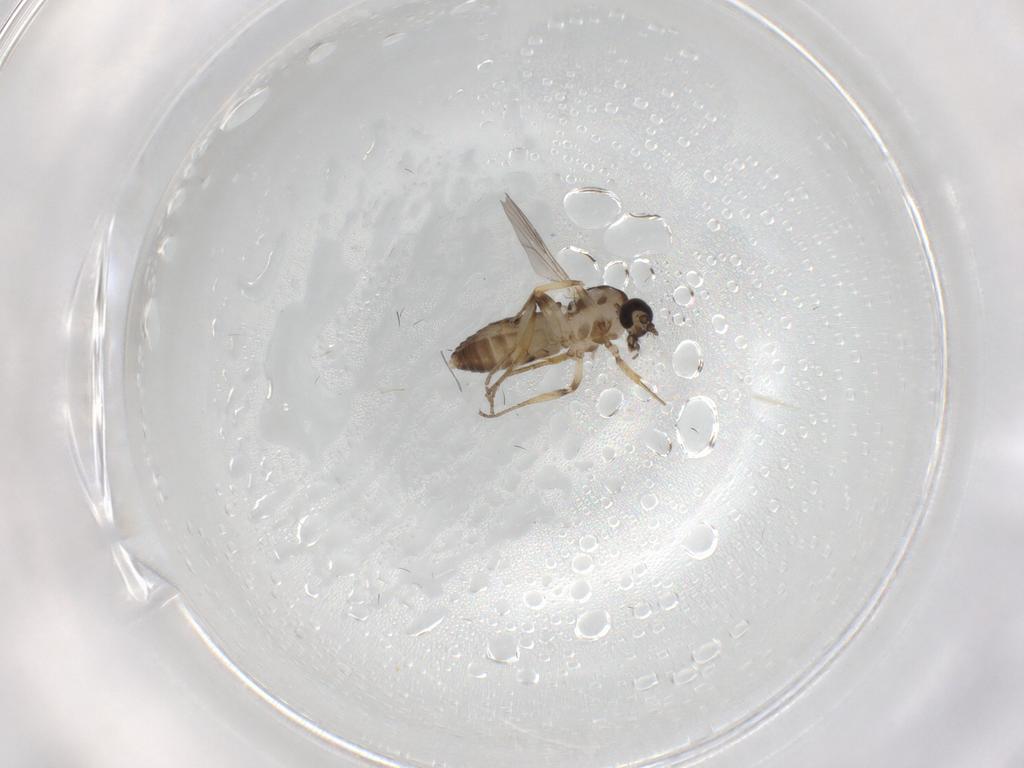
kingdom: Animalia
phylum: Arthropoda
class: Insecta
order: Diptera
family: Ceratopogonidae
